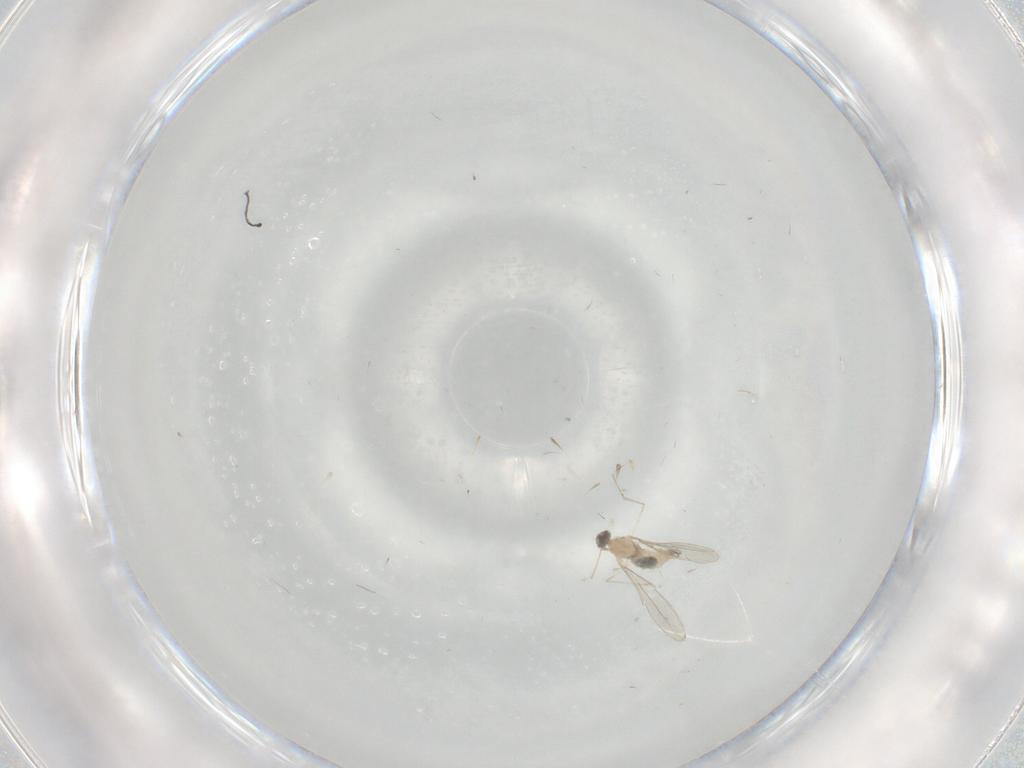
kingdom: Animalia
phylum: Arthropoda
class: Insecta
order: Diptera
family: Cecidomyiidae
